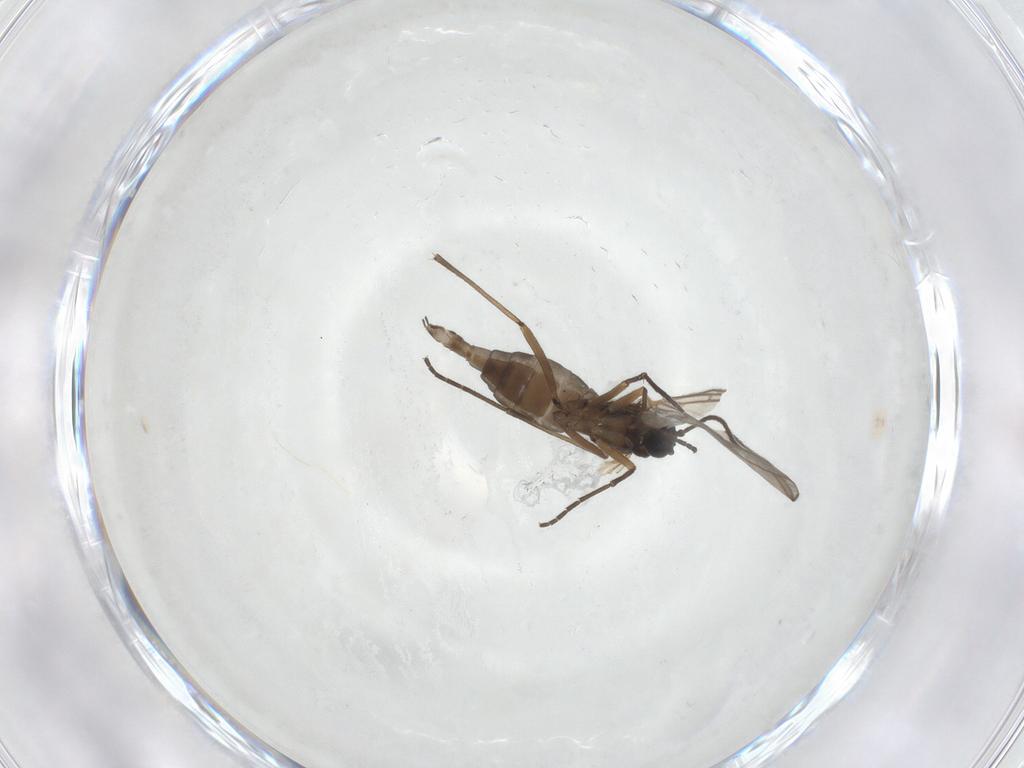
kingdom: Animalia
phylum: Arthropoda
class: Insecta
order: Diptera
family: Sciaridae
